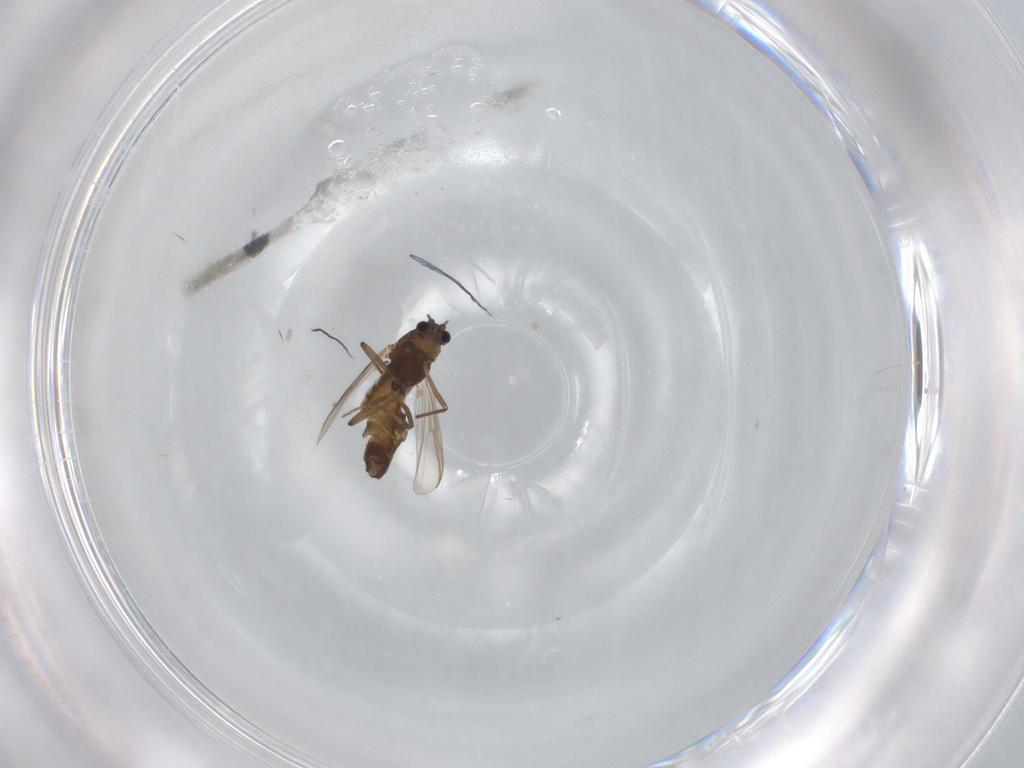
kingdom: Animalia
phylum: Arthropoda
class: Insecta
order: Diptera
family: Chironomidae
